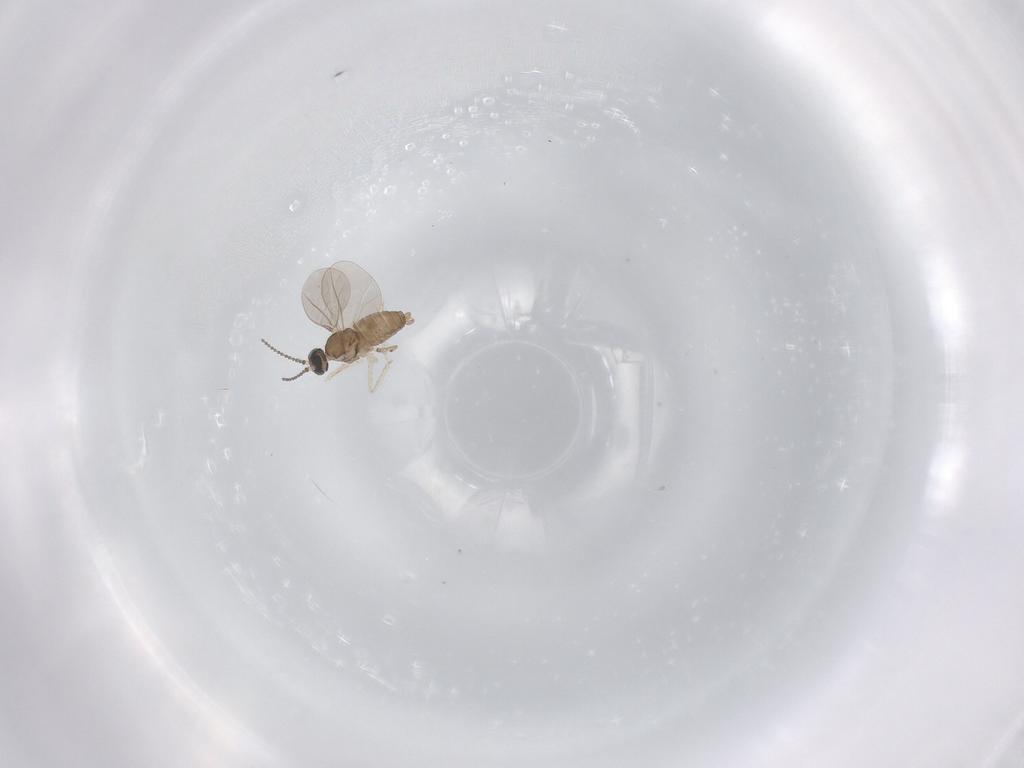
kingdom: Animalia
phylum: Arthropoda
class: Insecta
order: Diptera
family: Cecidomyiidae
